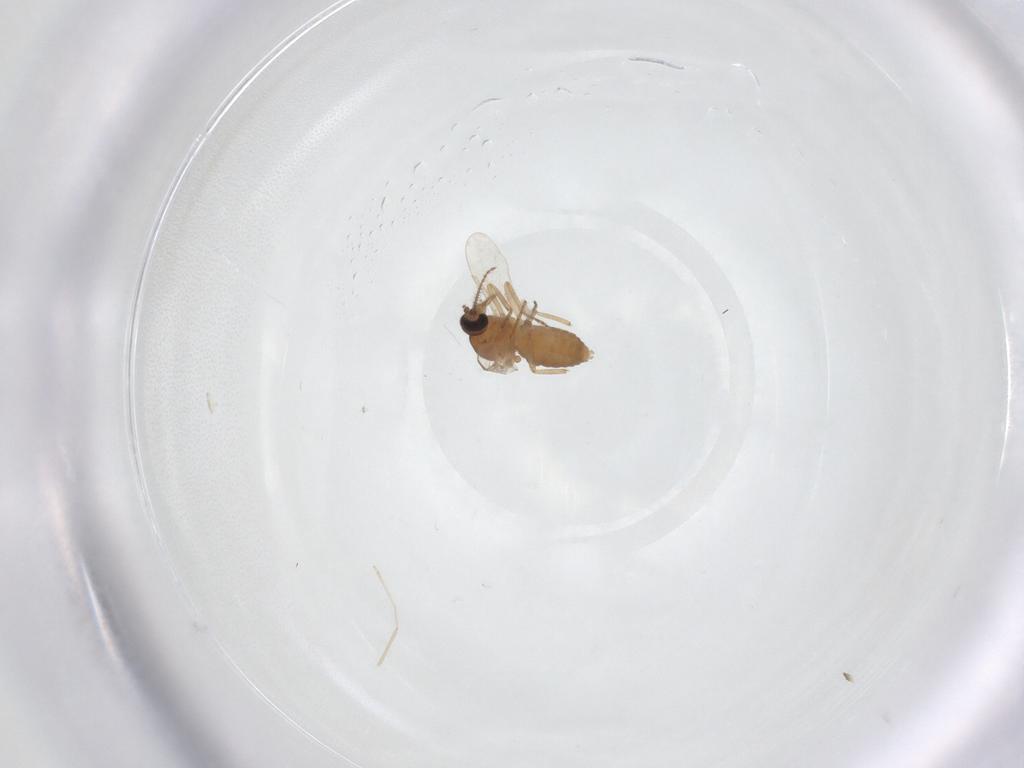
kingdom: Animalia
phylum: Arthropoda
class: Insecta
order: Diptera
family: Ceratopogonidae
